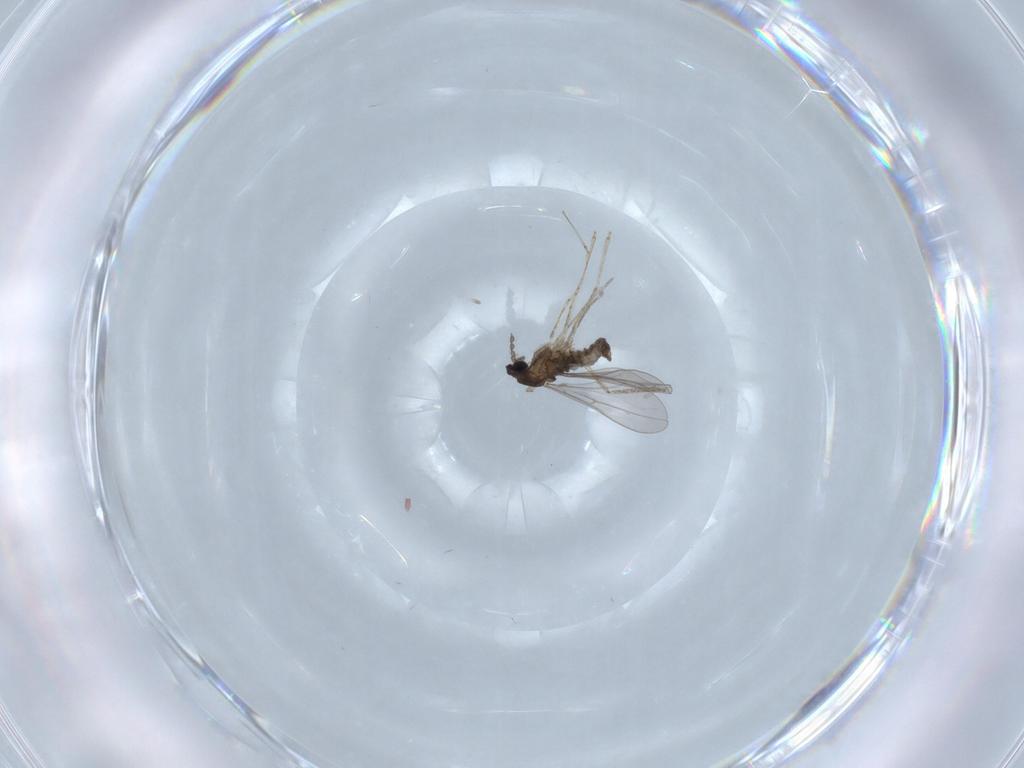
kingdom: Animalia
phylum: Arthropoda
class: Insecta
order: Diptera
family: Cecidomyiidae
